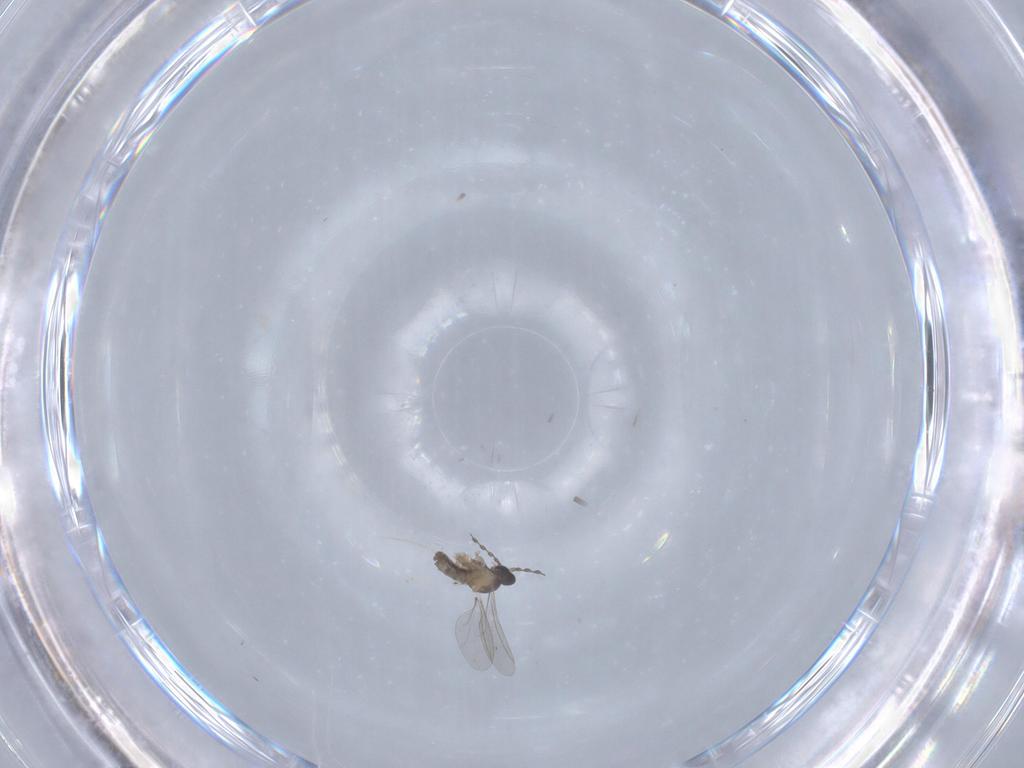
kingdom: Animalia
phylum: Arthropoda
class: Insecta
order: Diptera
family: Cecidomyiidae
